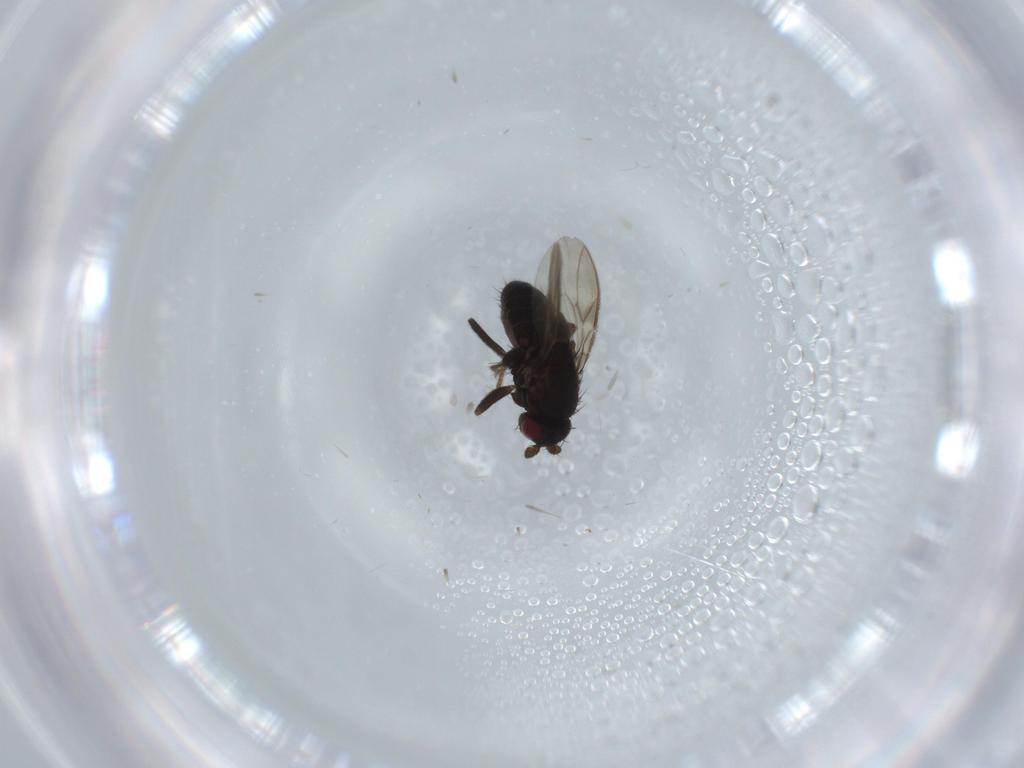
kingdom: Animalia
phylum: Arthropoda
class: Insecta
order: Diptera
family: Sphaeroceridae
